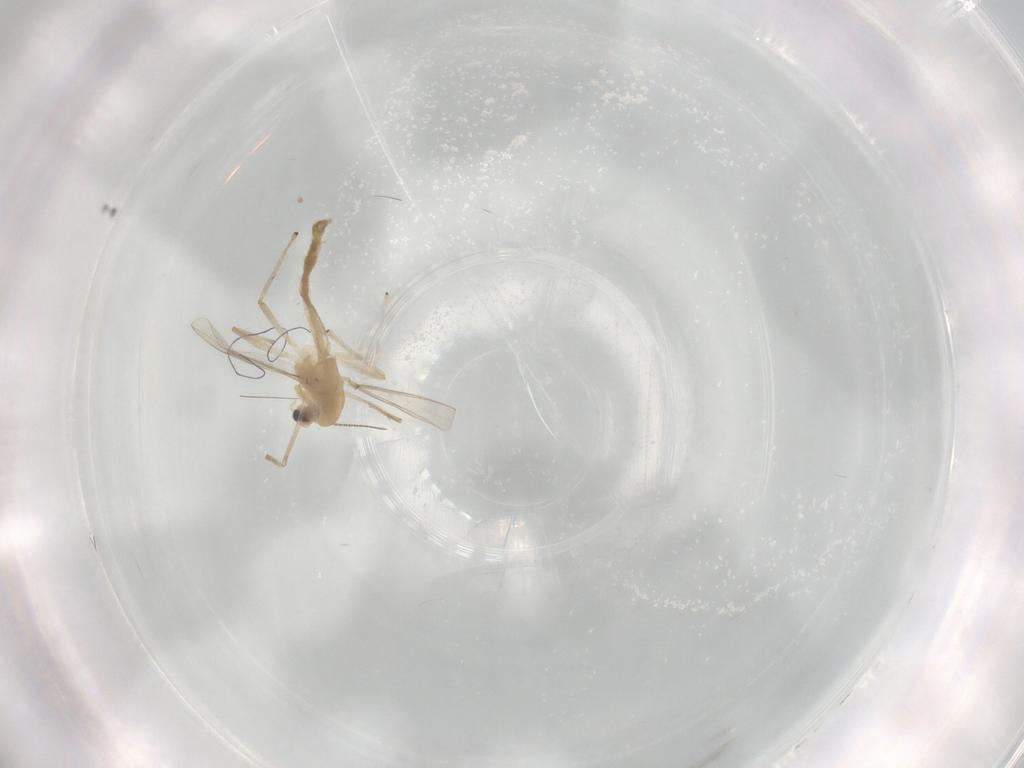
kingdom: Animalia
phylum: Arthropoda
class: Insecta
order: Diptera
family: Chironomidae
